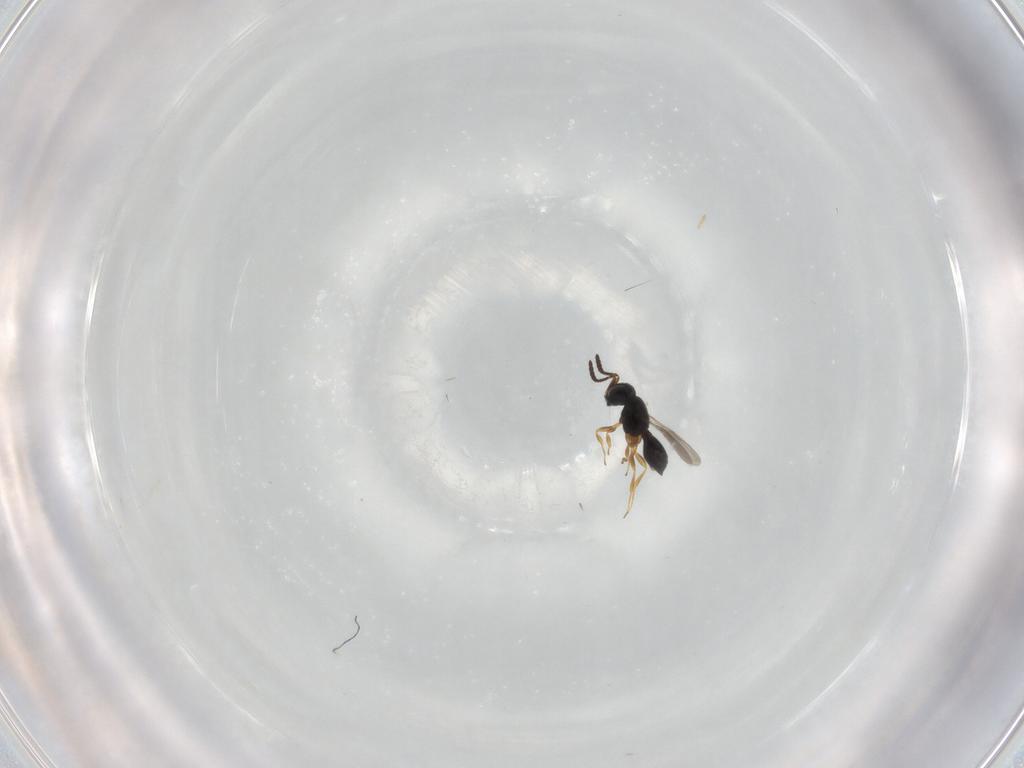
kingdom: Animalia
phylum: Arthropoda
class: Insecta
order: Hymenoptera
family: Scelionidae
